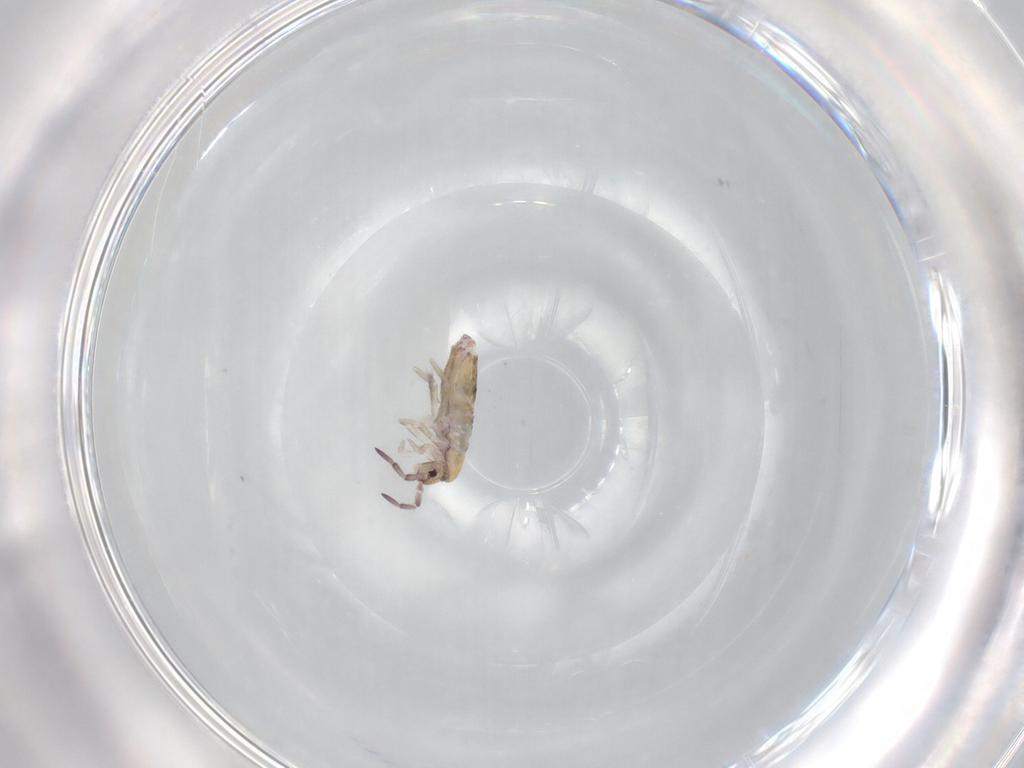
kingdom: Animalia
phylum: Arthropoda
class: Collembola
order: Entomobryomorpha
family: Entomobryidae
